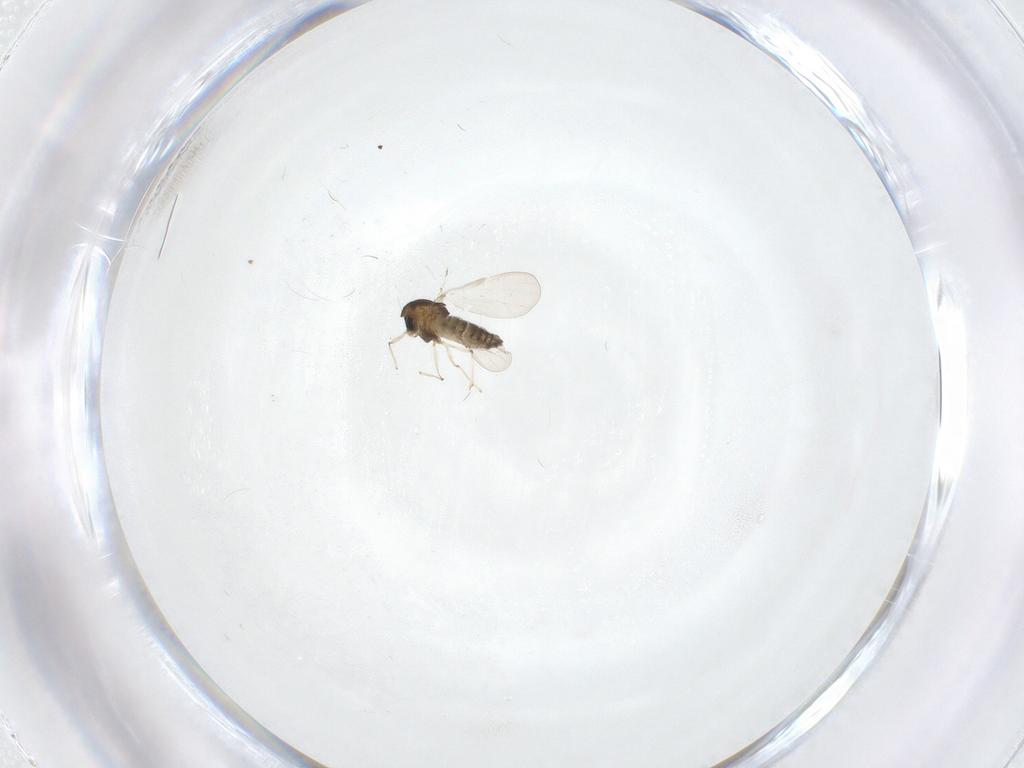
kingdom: Animalia
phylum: Arthropoda
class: Insecta
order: Diptera
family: Chironomidae
